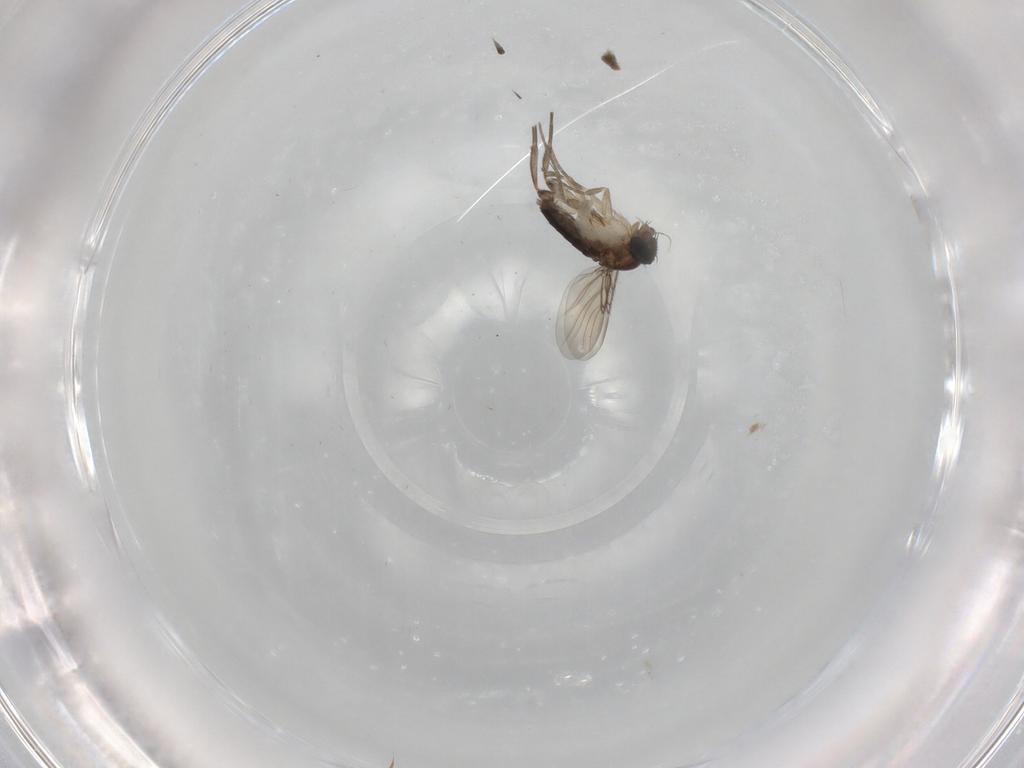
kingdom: Animalia
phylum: Arthropoda
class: Insecta
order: Diptera
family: Phoridae
